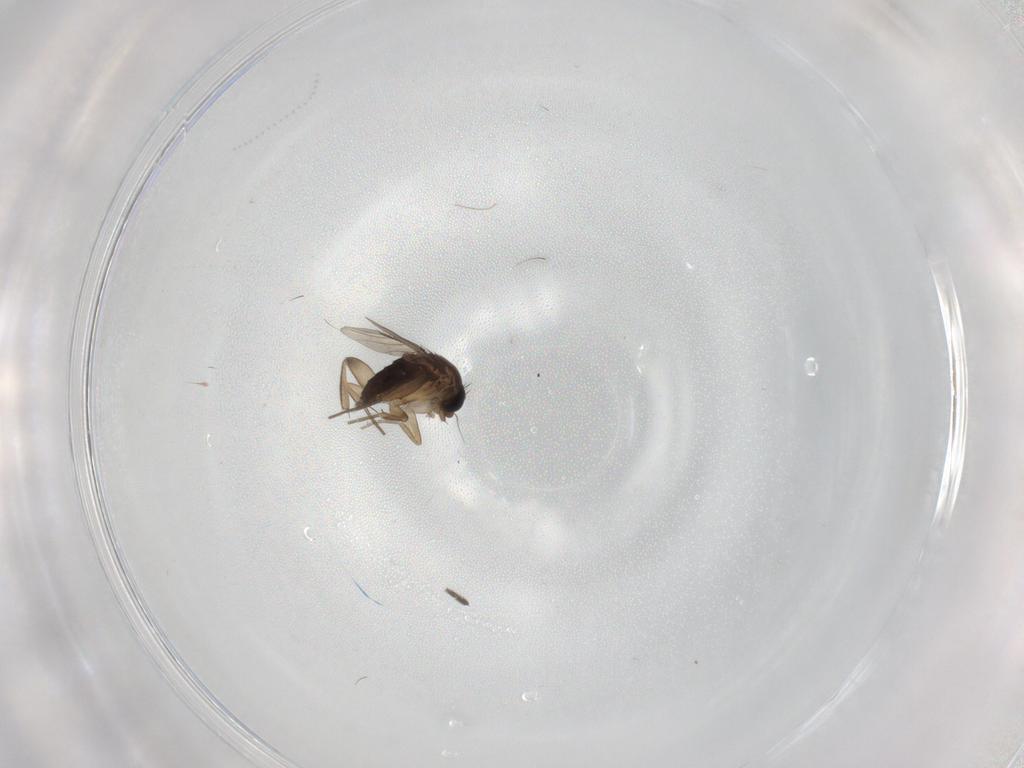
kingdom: Animalia
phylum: Arthropoda
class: Insecta
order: Diptera
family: Phoridae
